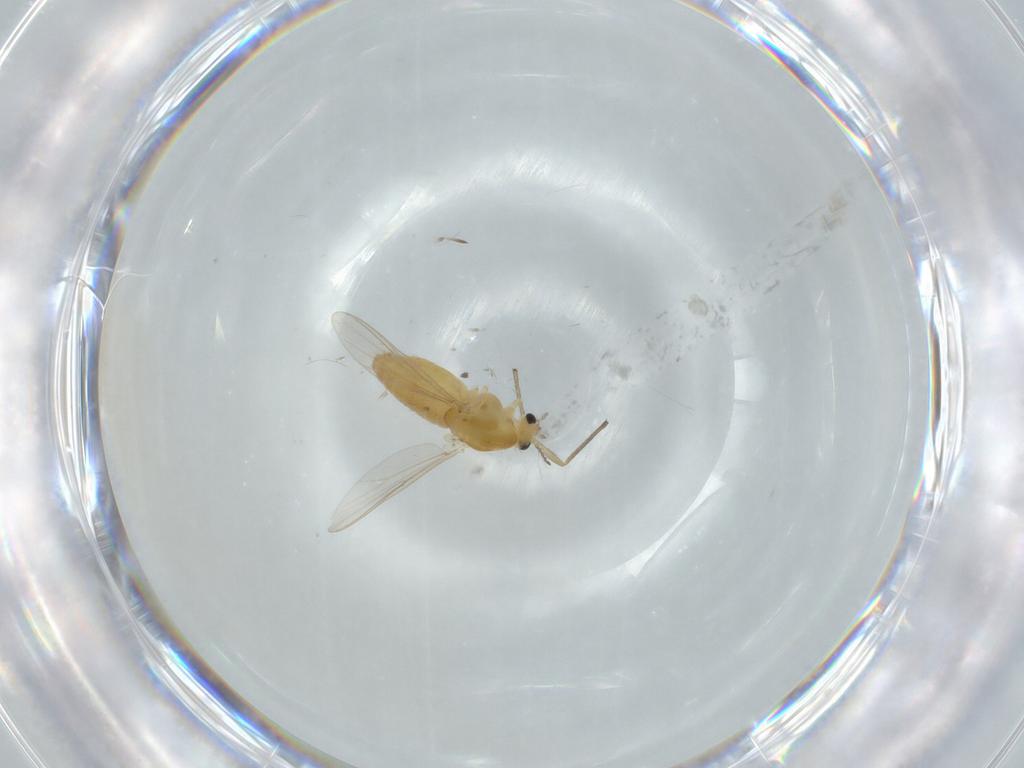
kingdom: Animalia
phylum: Arthropoda
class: Insecta
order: Diptera
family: Chironomidae
